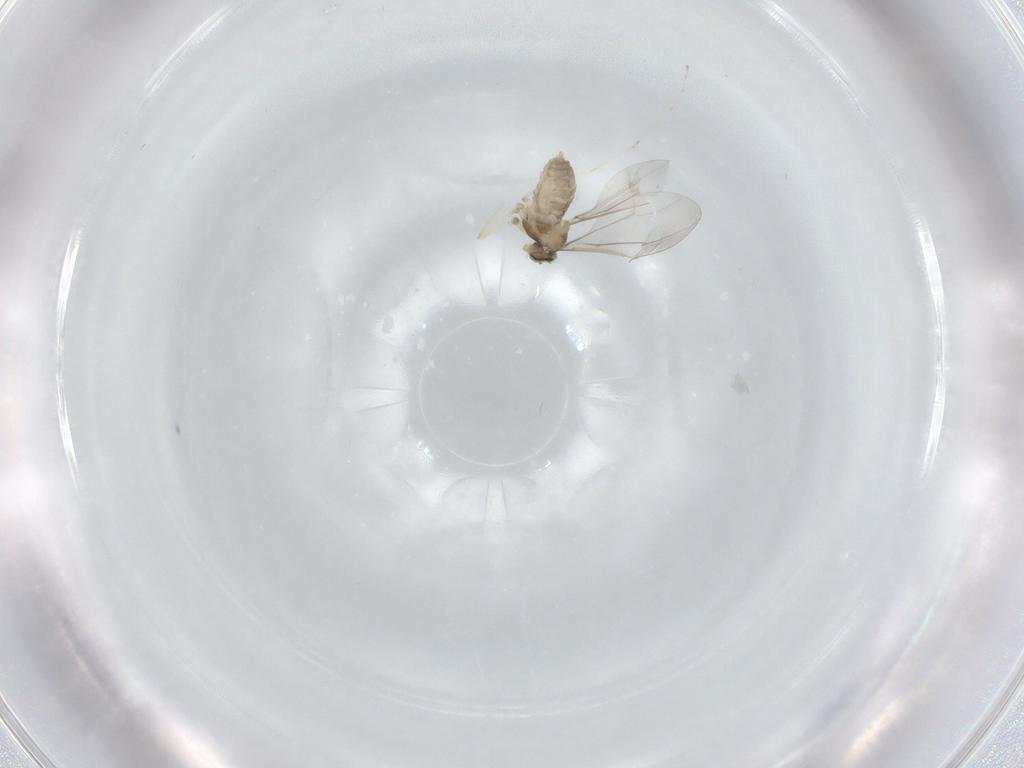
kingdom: Animalia
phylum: Arthropoda
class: Insecta
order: Diptera
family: Cecidomyiidae
